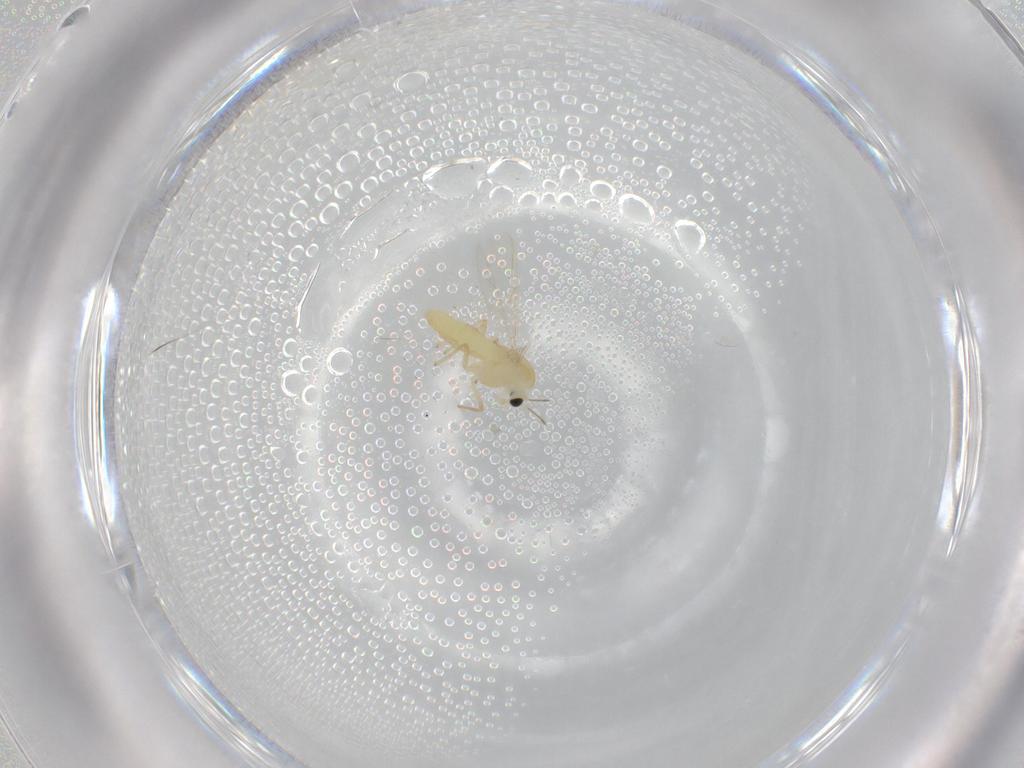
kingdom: Animalia
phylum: Arthropoda
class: Insecta
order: Diptera
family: Chironomidae
